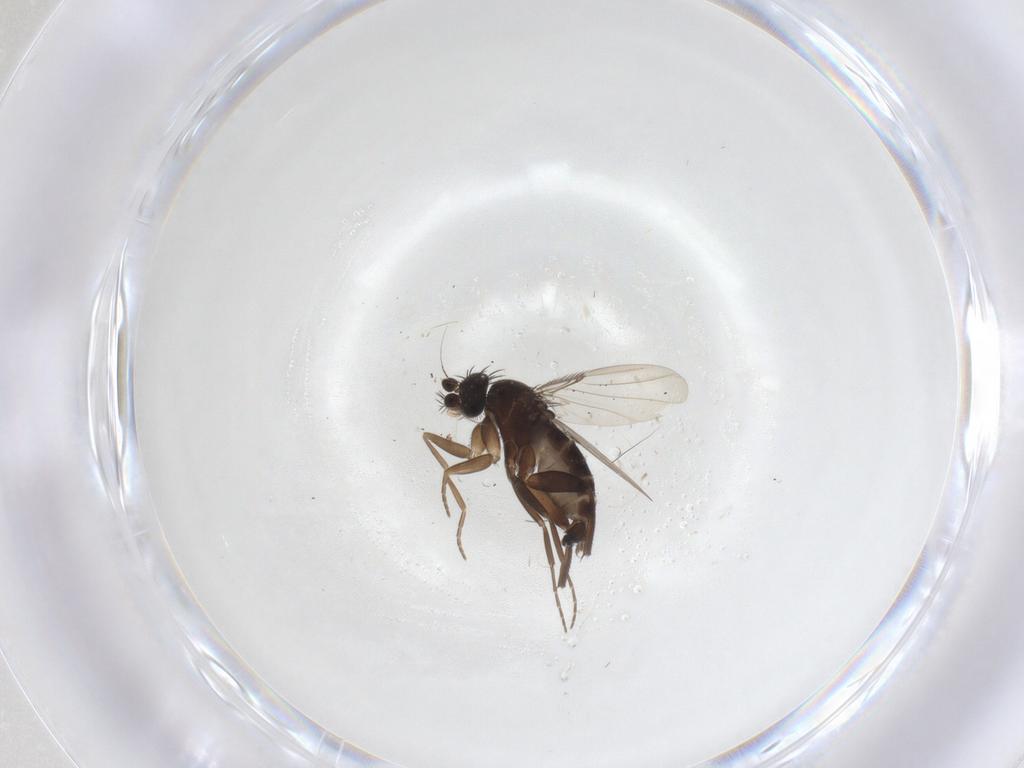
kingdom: Animalia
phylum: Arthropoda
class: Insecta
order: Diptera
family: Phoridae
